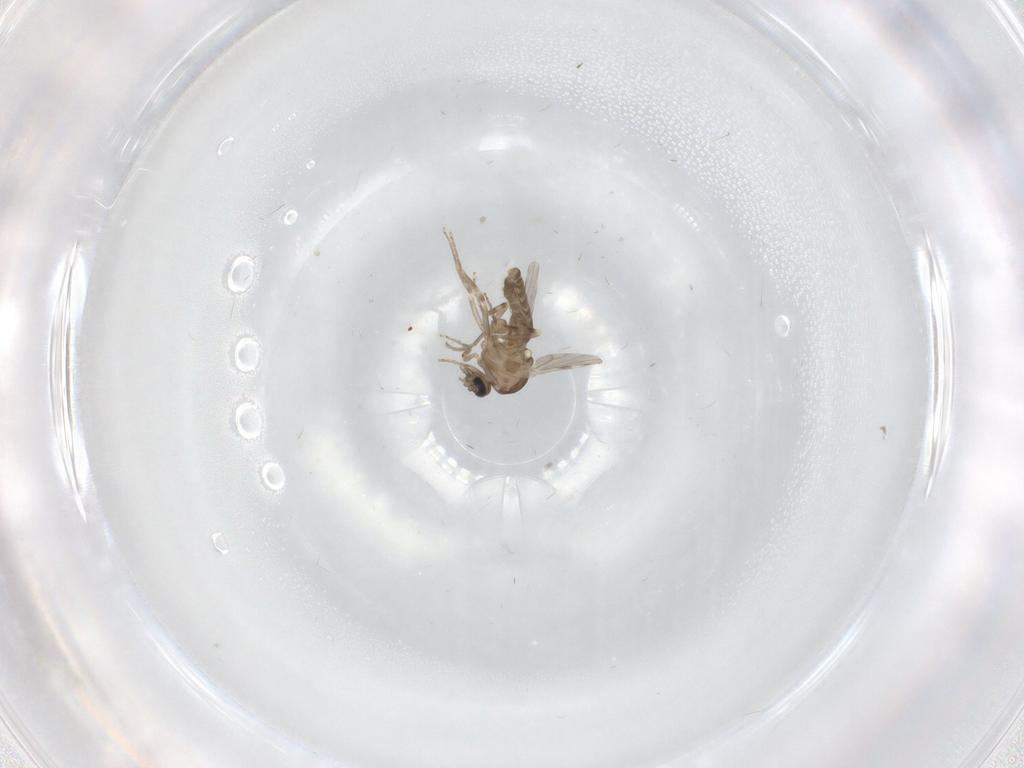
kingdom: Animalia
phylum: Arthropoda
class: Insecta
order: Diptera
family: Ceratopogonidae
